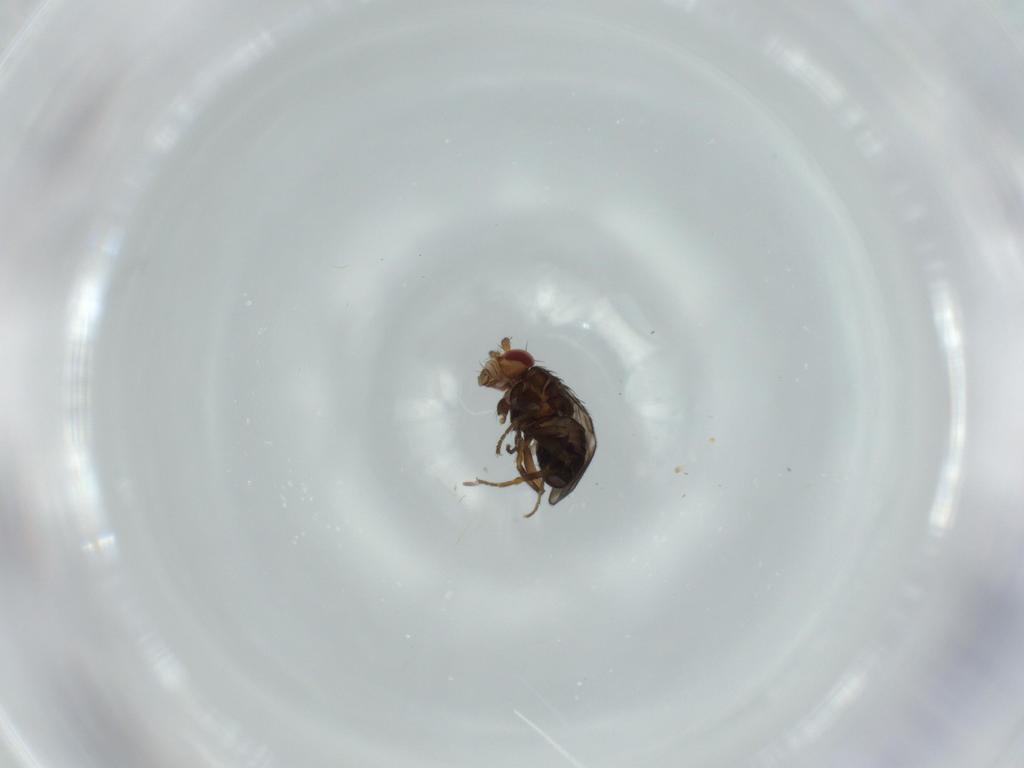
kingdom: Animalia
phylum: Arthropoda
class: Insecta
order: Diptera
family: Sphaeroceridae
